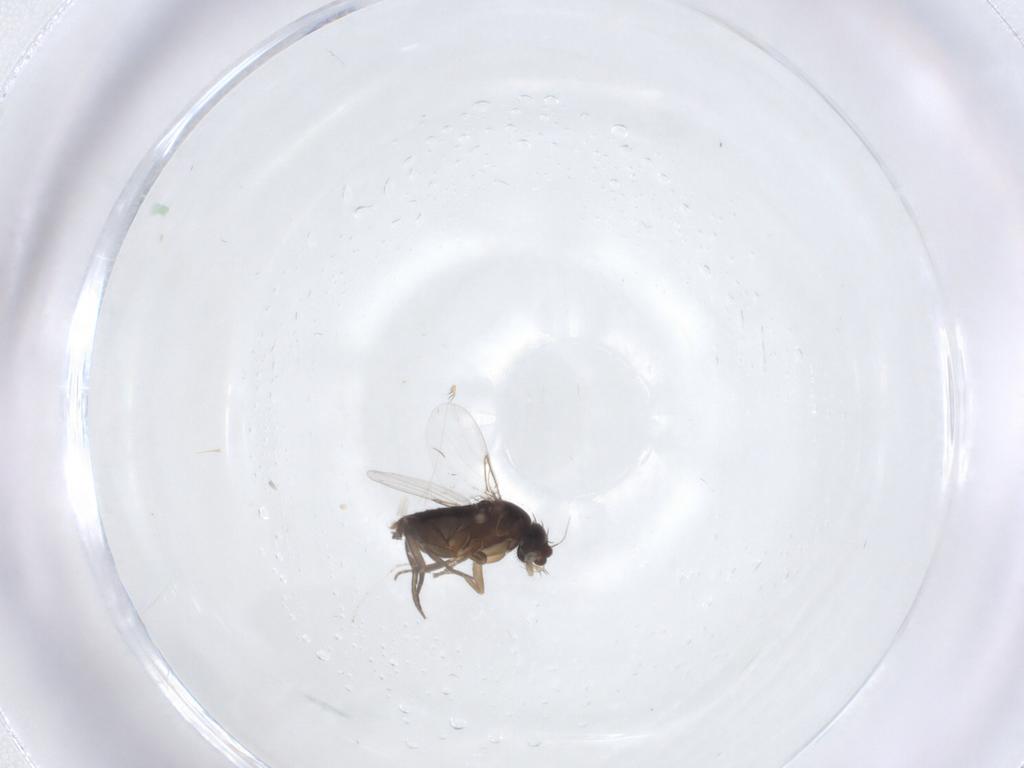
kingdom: Animalia
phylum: Arthropoda
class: Insecta
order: Diptera
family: Phoridae
